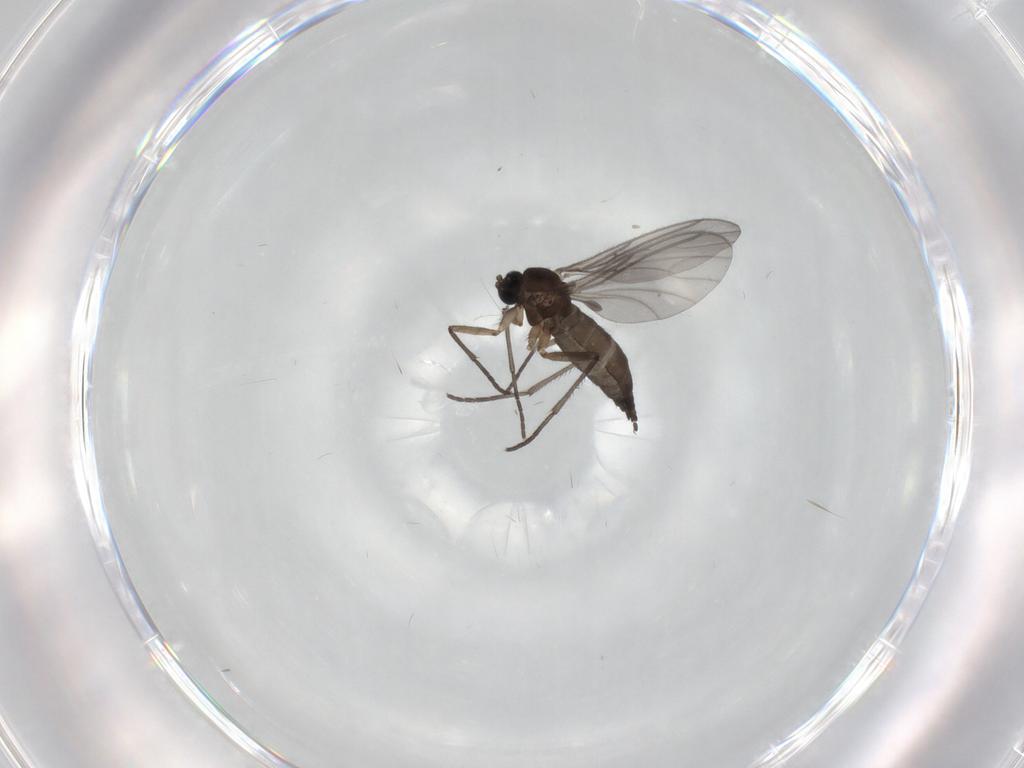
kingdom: Animalia
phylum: Arthropoda
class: Insecta
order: Diptera
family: Sciaridae
